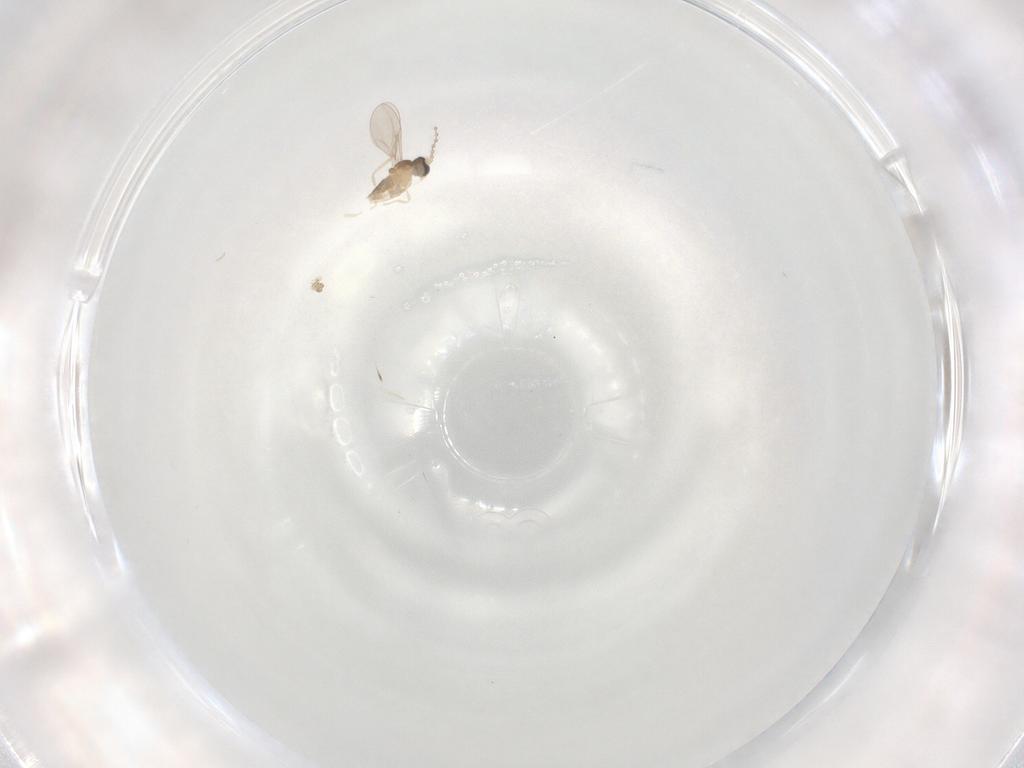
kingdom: Animalia
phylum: Arthropoda
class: Insecta
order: Diptera
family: Cecidomyiidae
